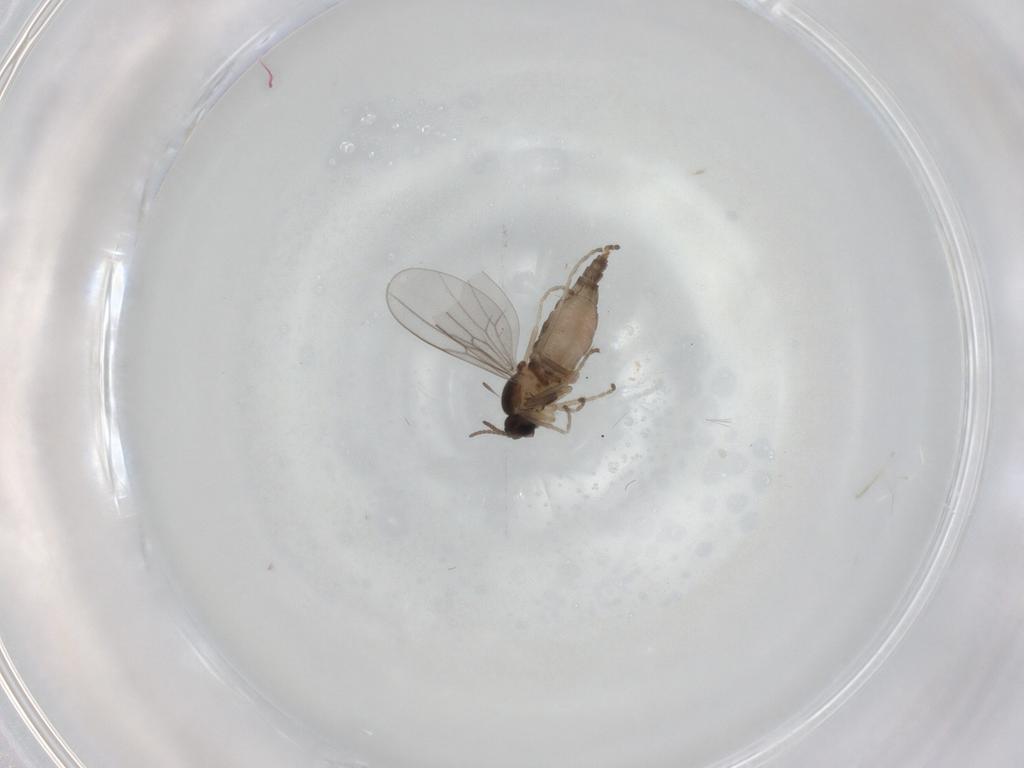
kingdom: Animalia
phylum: Arthropoda
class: Insecta
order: Diptera
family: Cecidomyiidae
